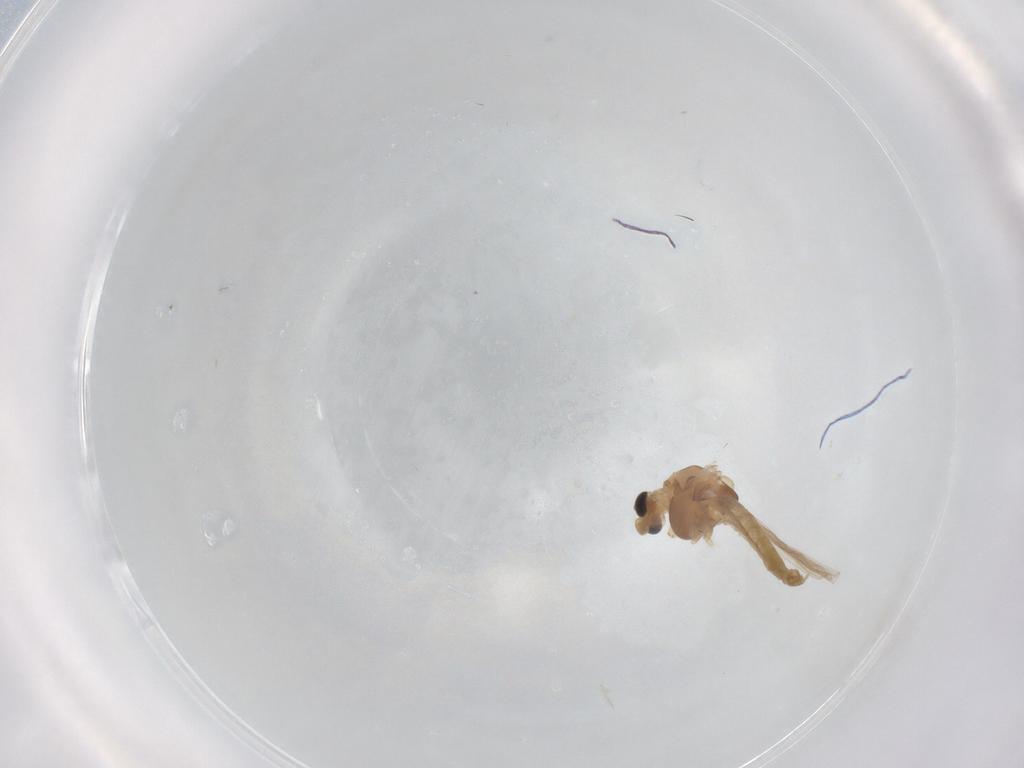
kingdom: Animalia
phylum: Arthropoda
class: Insecta
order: Diptera
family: Chironomidae
